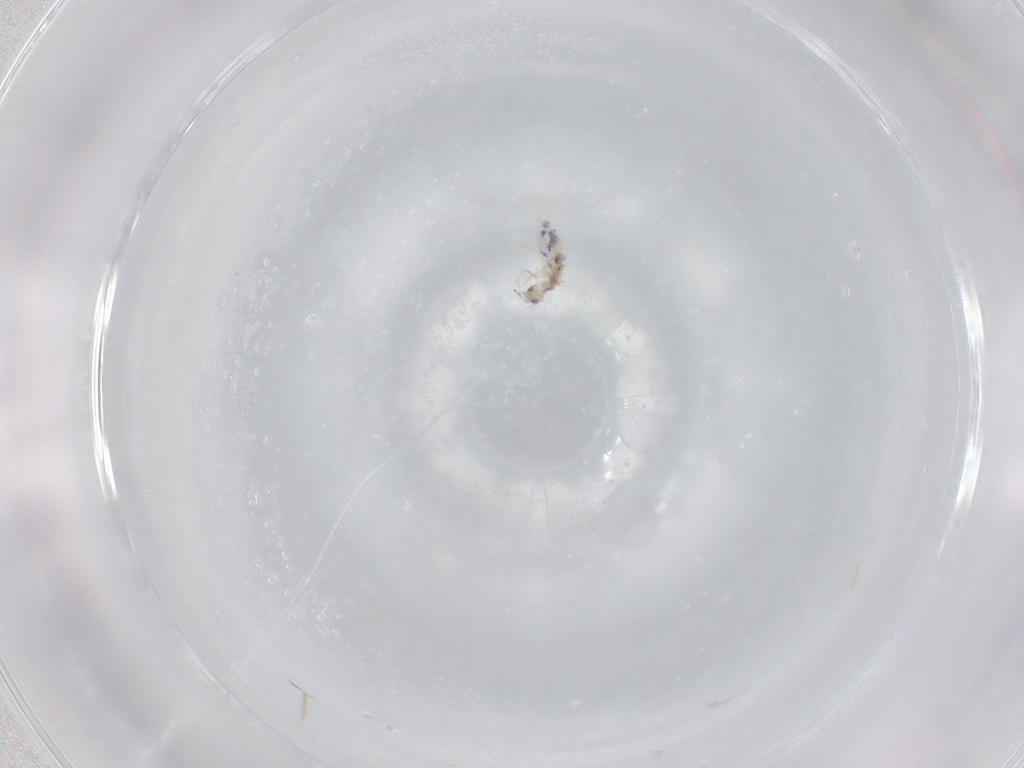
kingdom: Animalia
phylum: Arthropoda
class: Collembola
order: Entomobryomorpha
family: Entomobryidae
